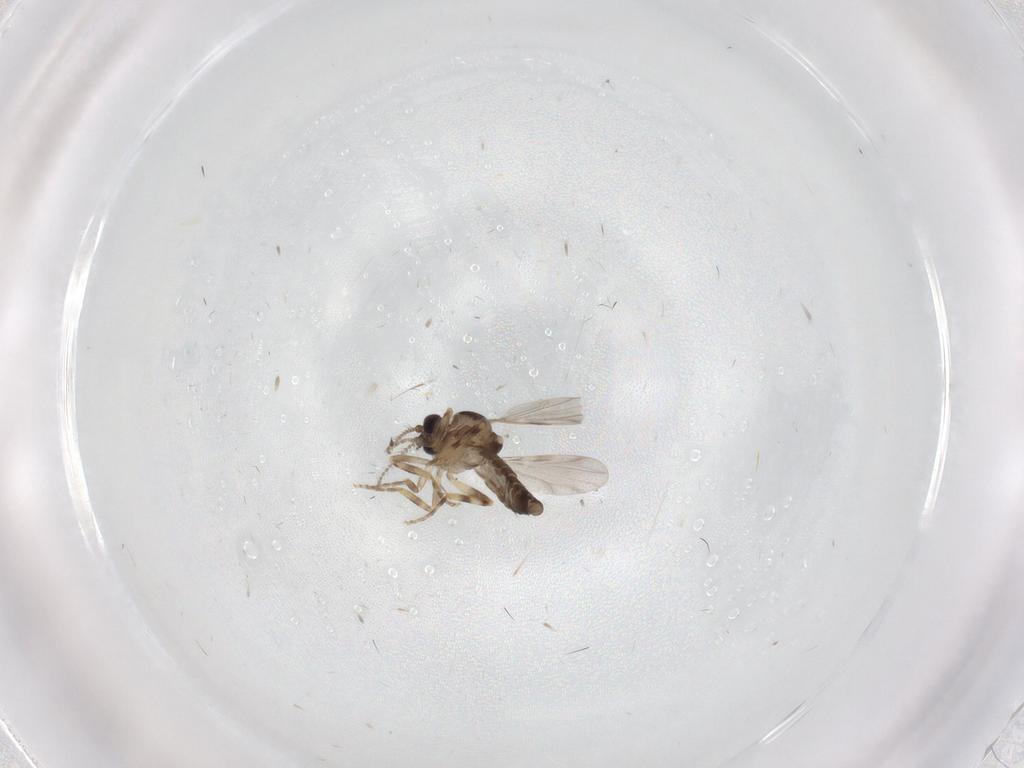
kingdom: Animalia
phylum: Arthropoda
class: Insecta
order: Diptera
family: Ceratopogonidae
